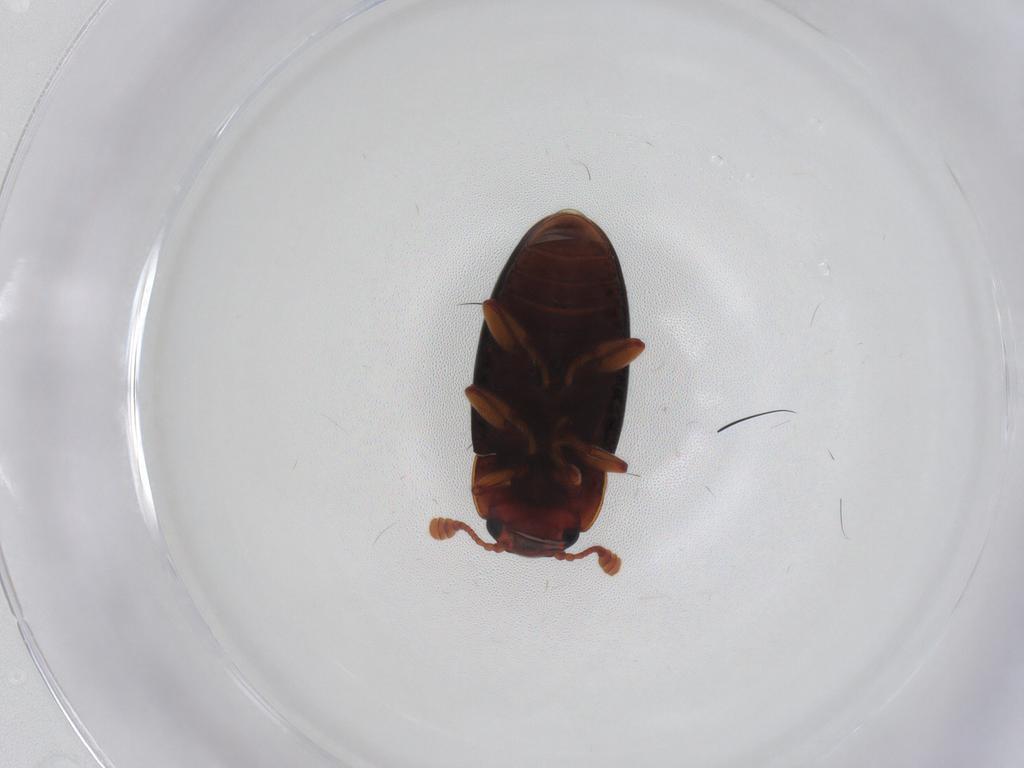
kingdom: Animalia
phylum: Arthropoda
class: Insecta
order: Coleoptera
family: Erotylidae
